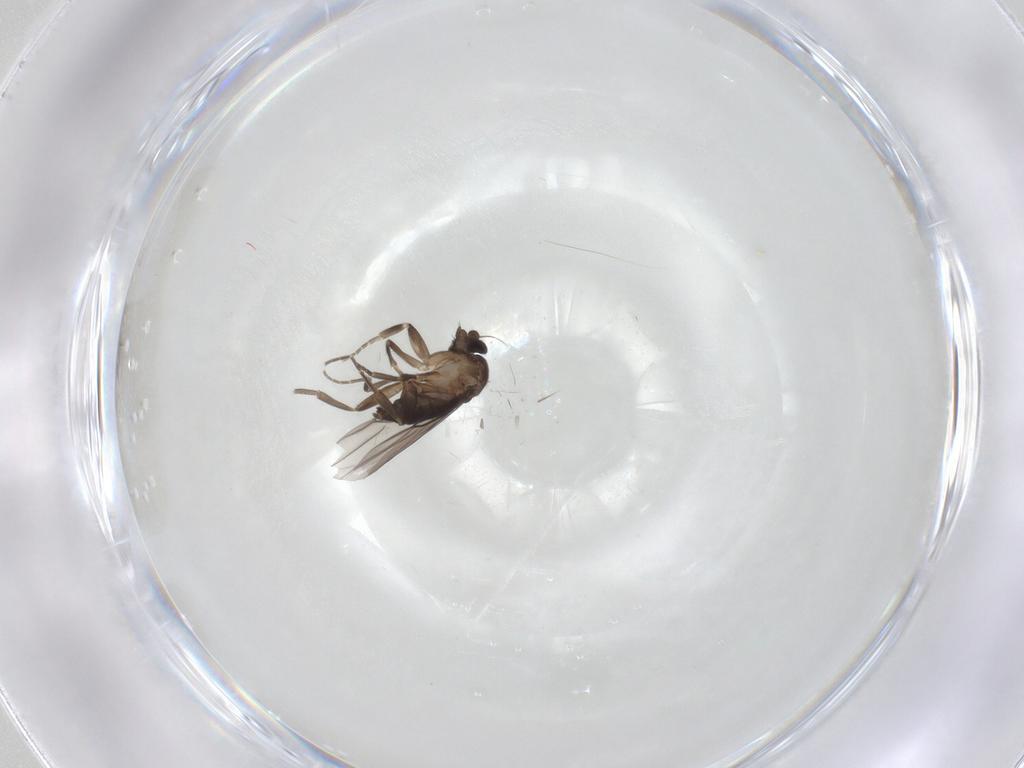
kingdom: Animalia
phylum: Arthropoda
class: Insecta
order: Diptera
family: Phoridae
